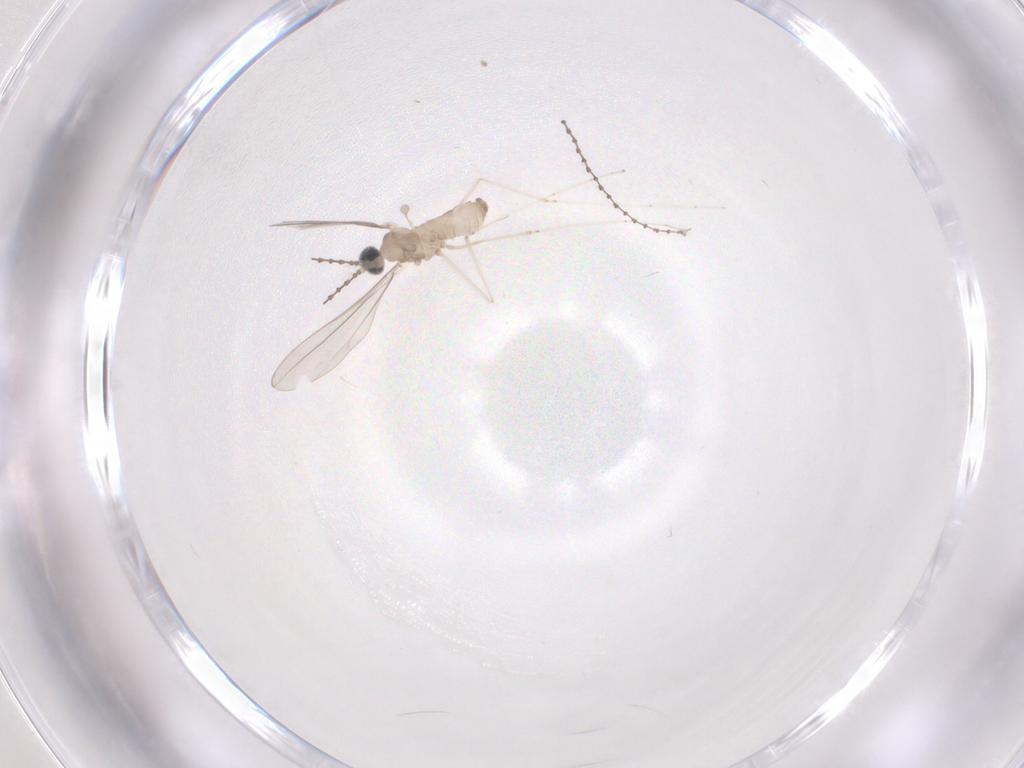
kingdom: Animalia
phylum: Arthropoda
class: Insecta
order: Diptera
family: Cecidomyiidae
